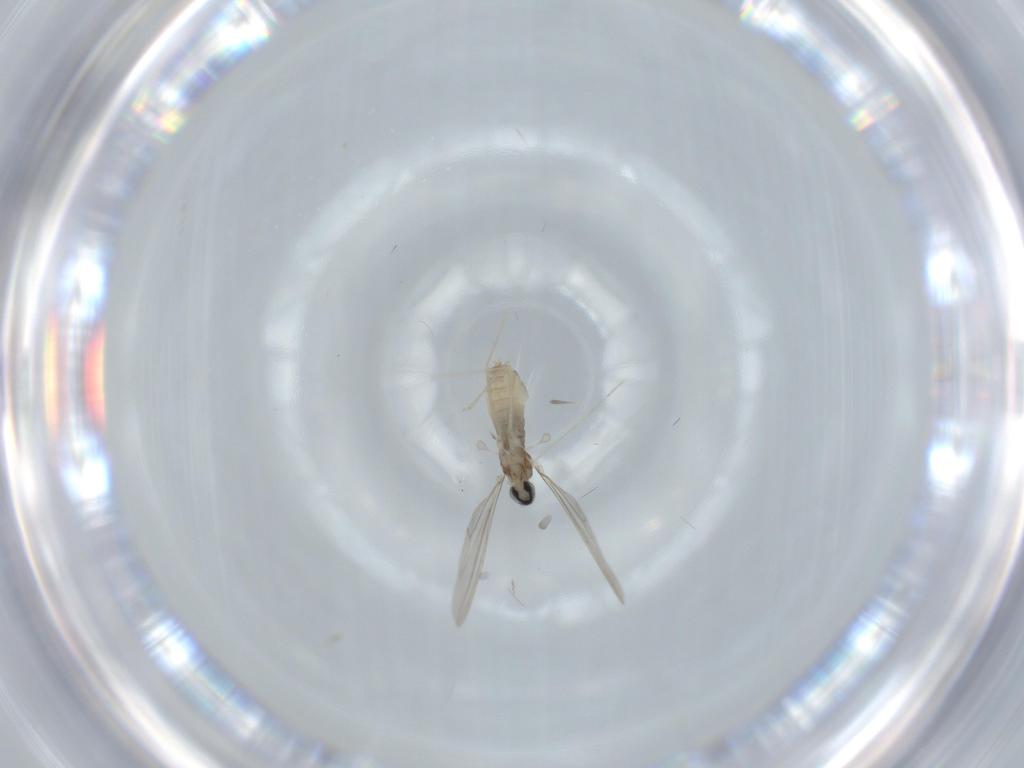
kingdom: Animalia
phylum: Arthropoda
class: Insecta
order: Diptera
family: Cecidomyiidae
